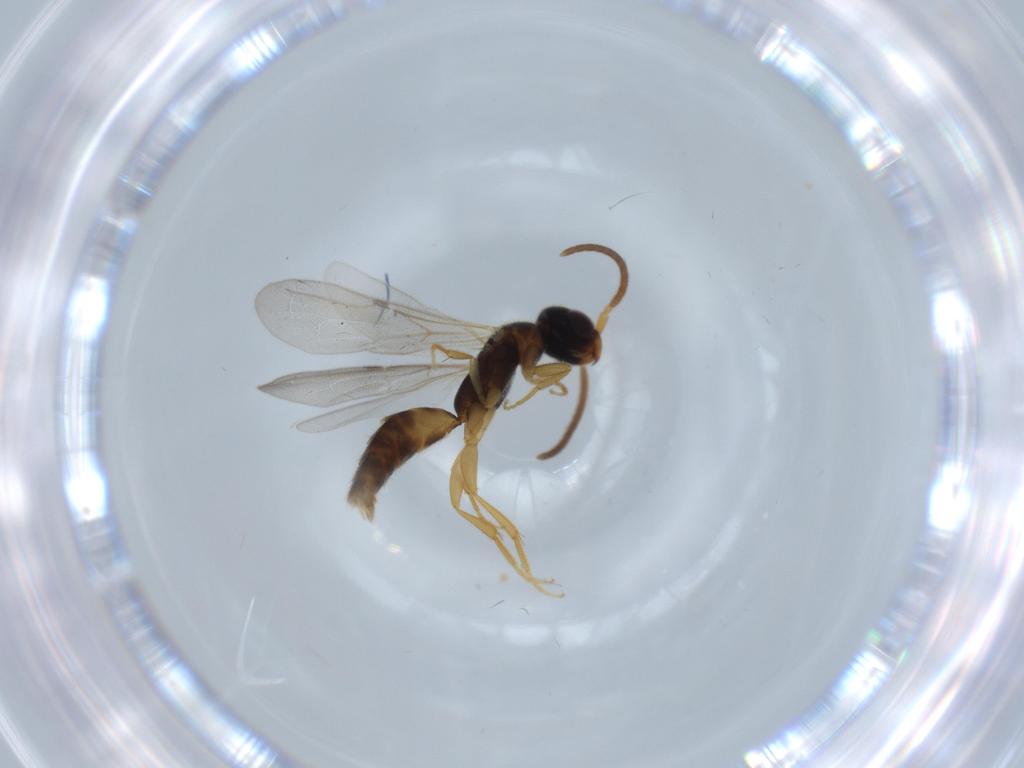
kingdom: Animalia
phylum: Arthropoda
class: Insecta
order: Hymenoptera
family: Bethylidae
